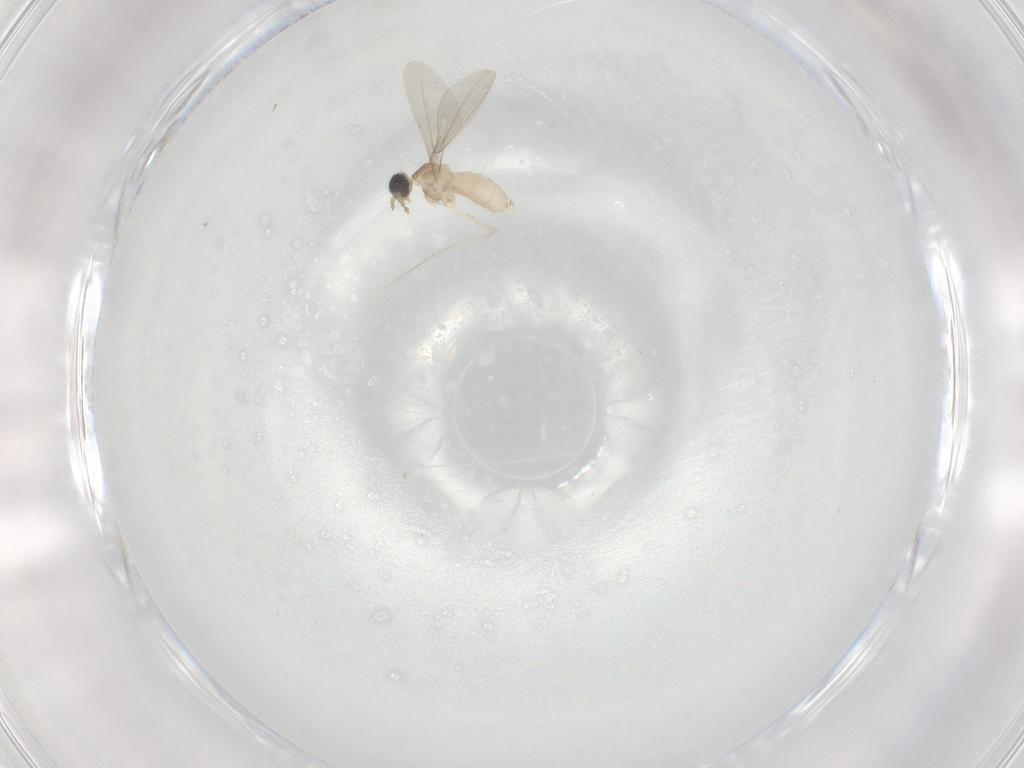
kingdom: Animalia
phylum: Arthropoda
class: Insecta
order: Diptera
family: Cecidomyiidae
